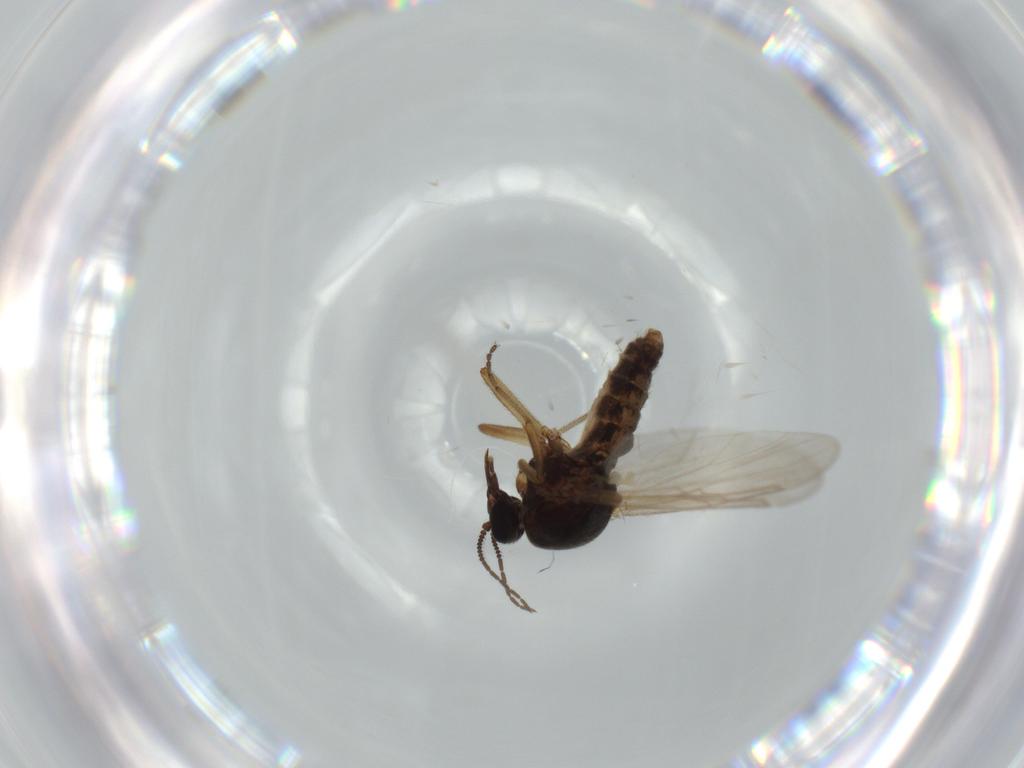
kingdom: Animalia
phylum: Arthropoda
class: Insecta
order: Diptera
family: Ceratopogonidae
